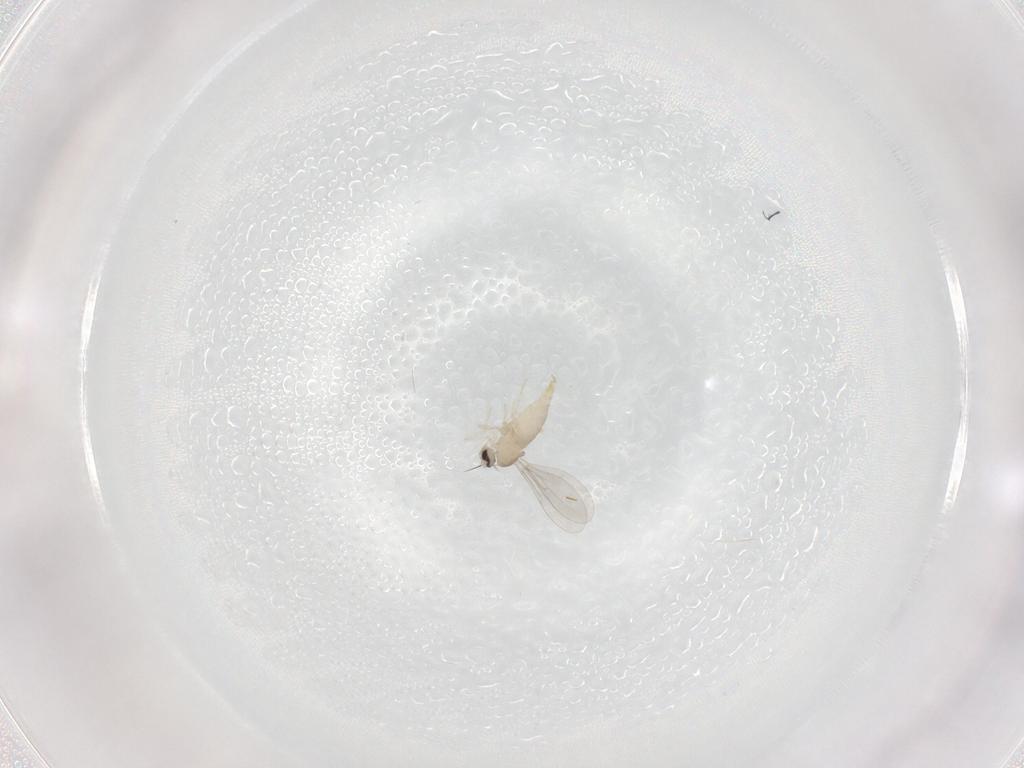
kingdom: Animalia
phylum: Arthropoda
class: Insecta
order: Diptera
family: Cecidomyiidae
